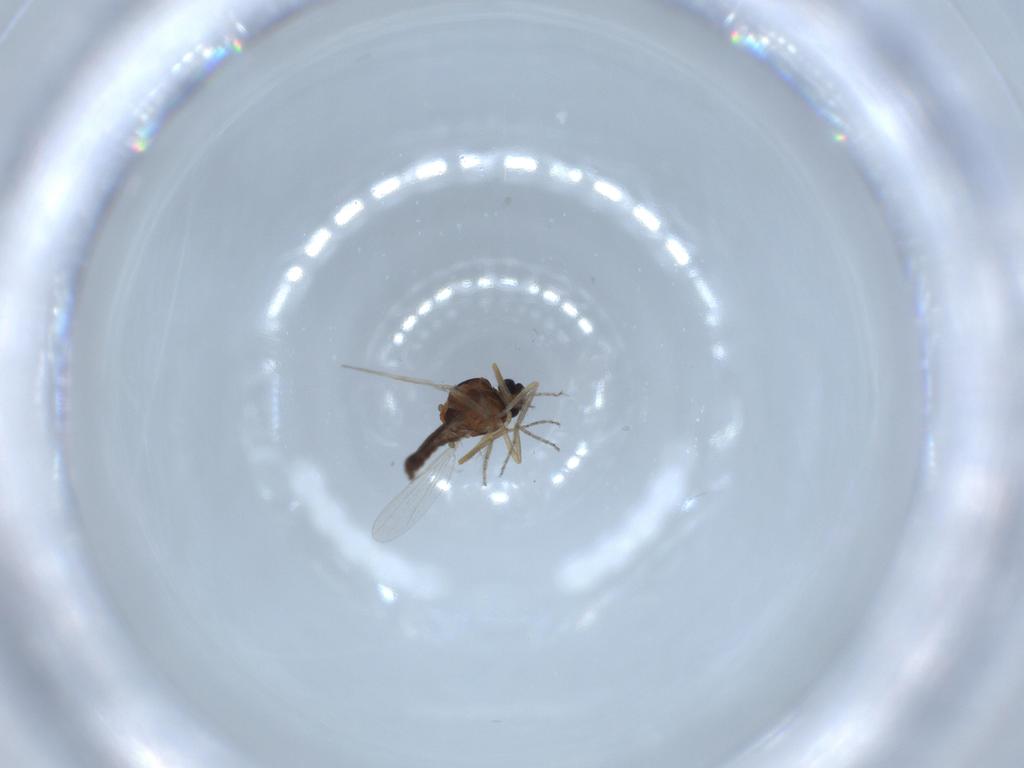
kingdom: Animalia
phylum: Arthropoda
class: Insecta
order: Diptera
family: Ceratopogonidae
